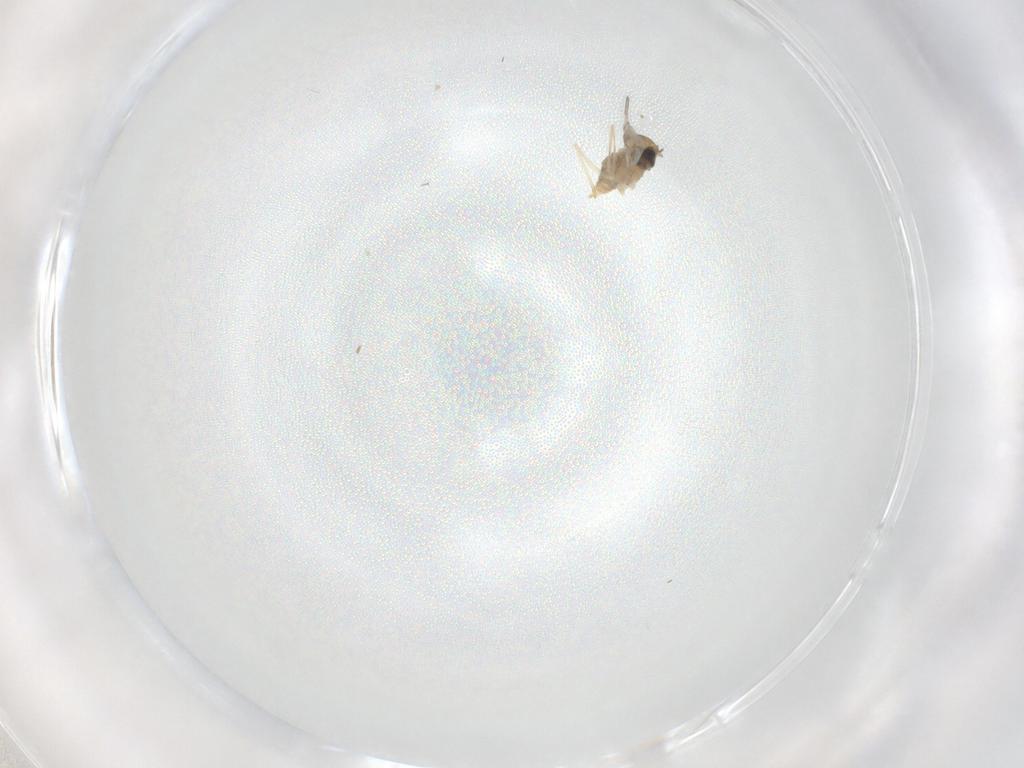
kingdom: Animalia
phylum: Arthropoda
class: Insecta
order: Diptera
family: Cecidomyiidae
